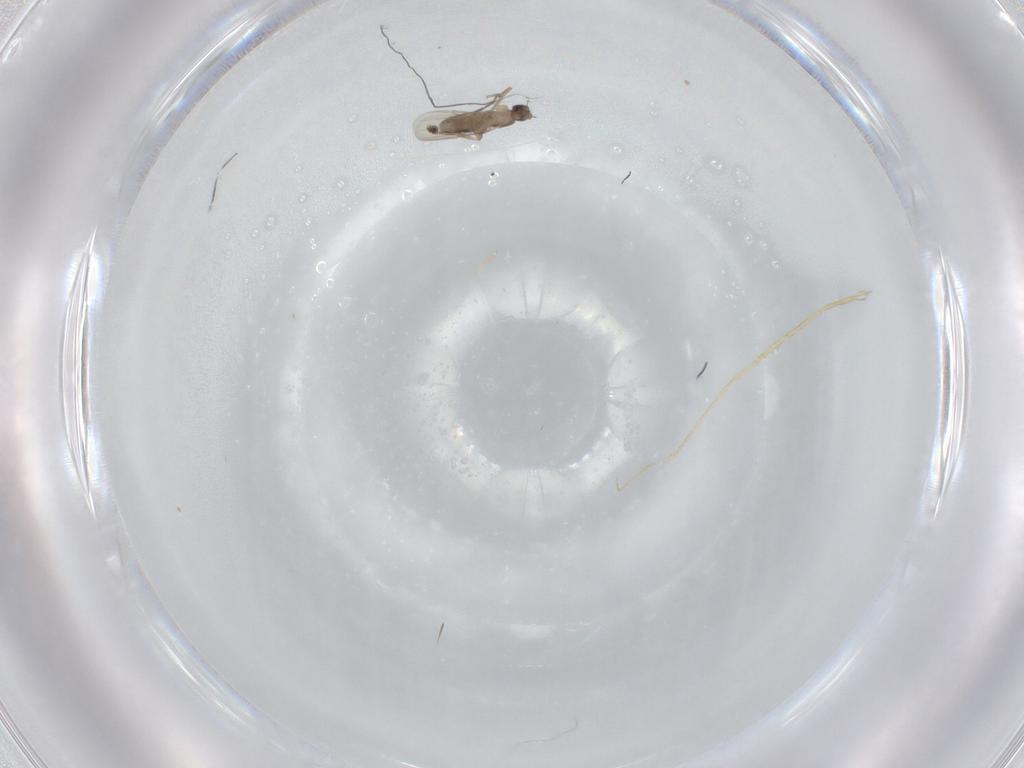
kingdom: Animalia
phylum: Arthropoda
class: Insecta
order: Diptera
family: Phoridae
